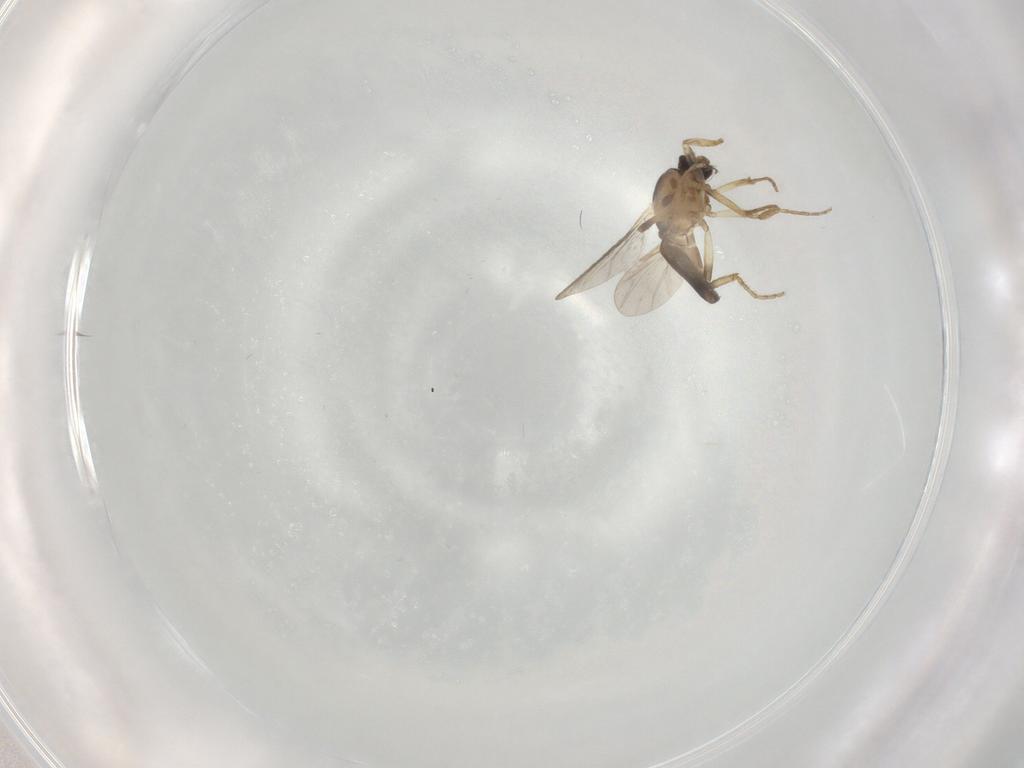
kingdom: Animalia
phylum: Arthropoda
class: Insecta
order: Diptera
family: Ceratopogonidae
